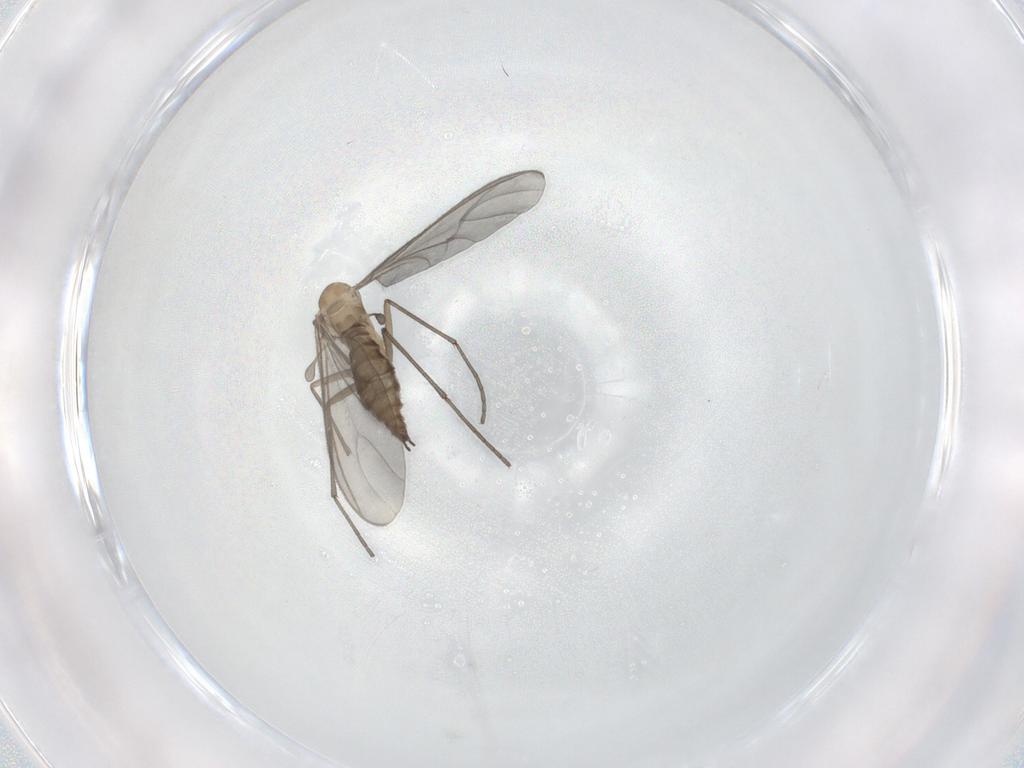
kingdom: Animalia
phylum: Arthropoda
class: Insecta
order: Diptera
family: Sciaridae
